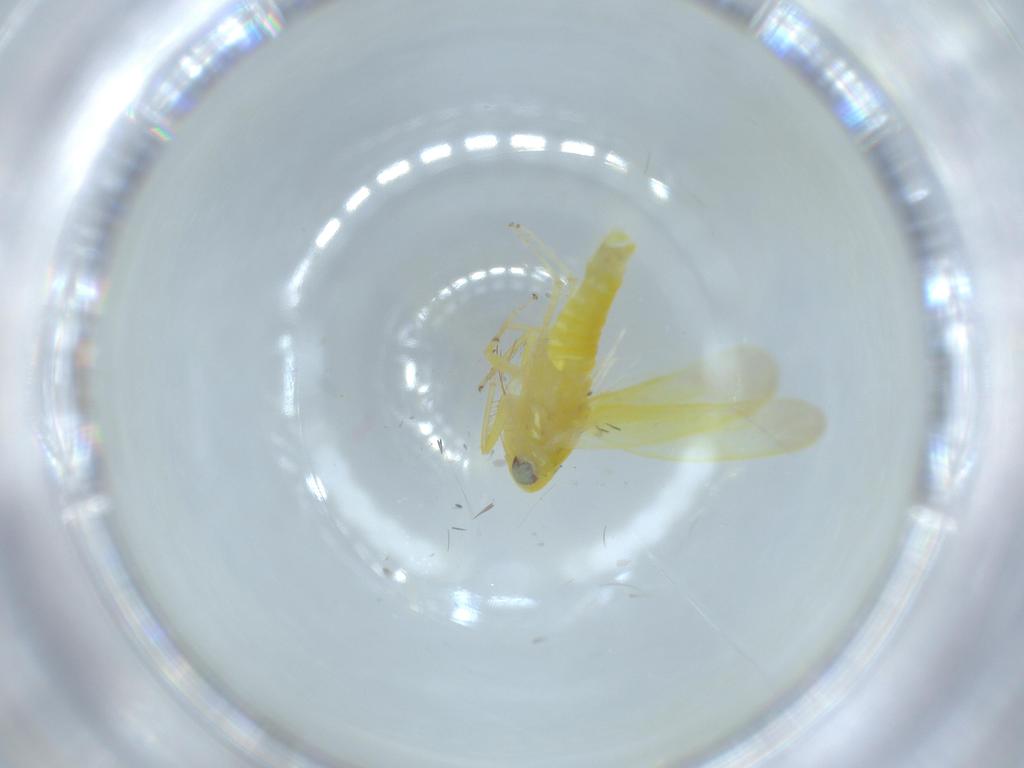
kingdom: Animalia
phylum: Arthropoda
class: Insecta
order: Hemiptera
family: Cicadellidae
